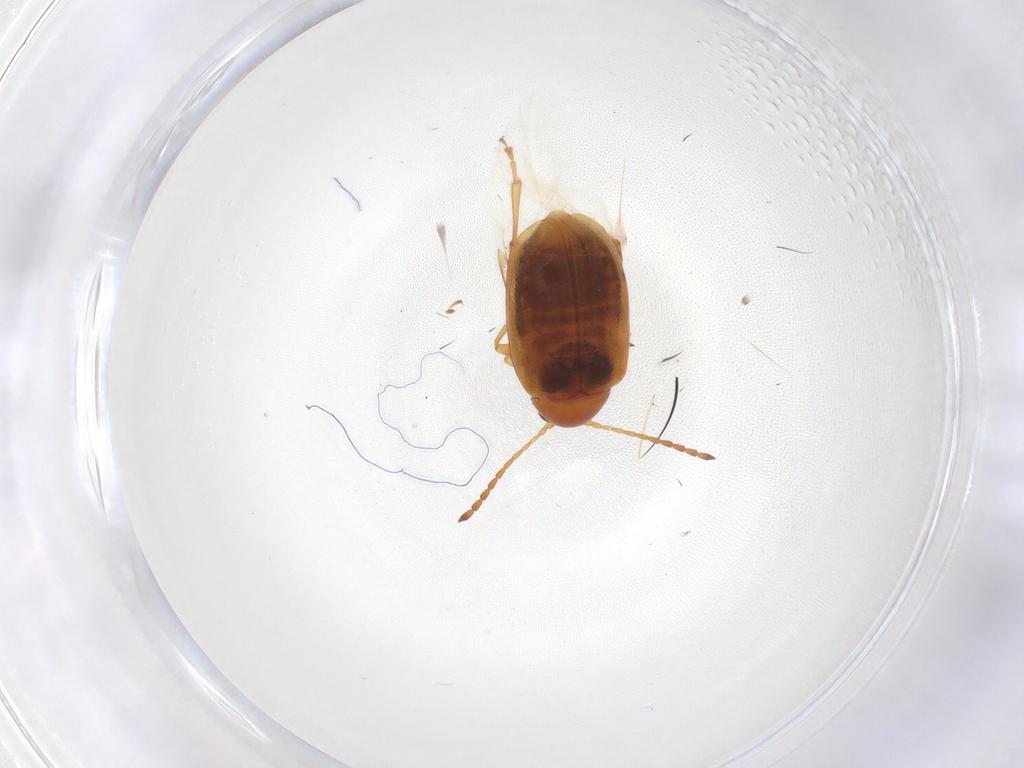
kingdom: Animalia
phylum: Arthropoda
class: Insecta
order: Coleoptera
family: Chrysomelidae
